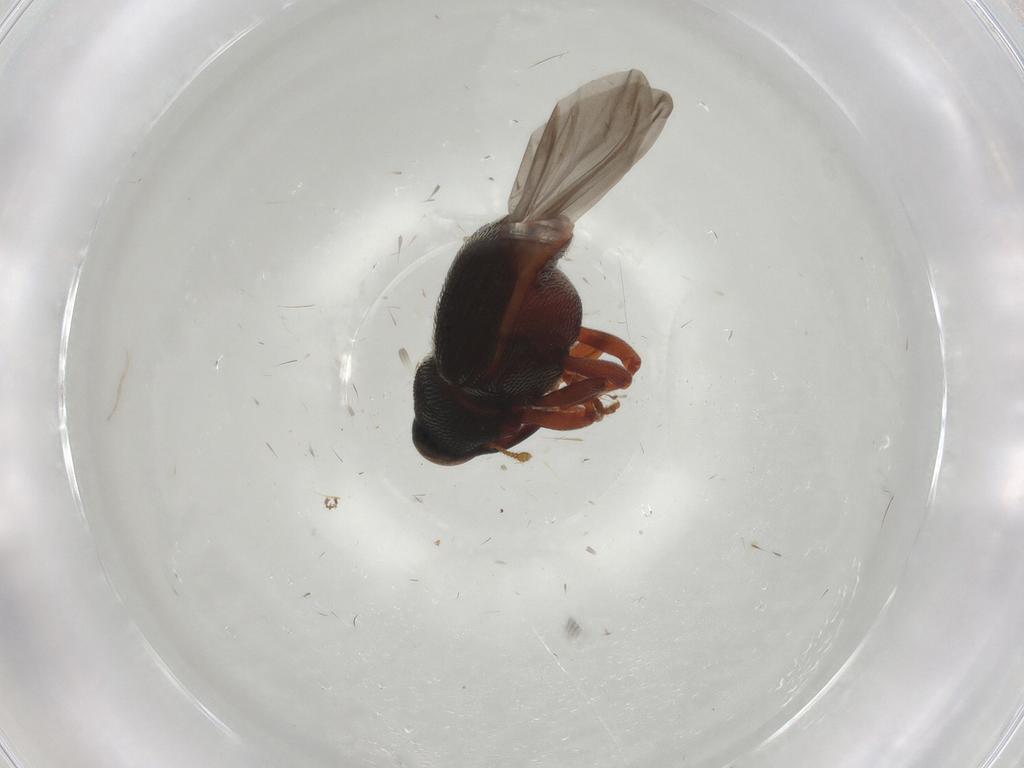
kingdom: Animalia
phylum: Arthropoda
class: Insecta
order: Coleoptera
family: Curculionidae
